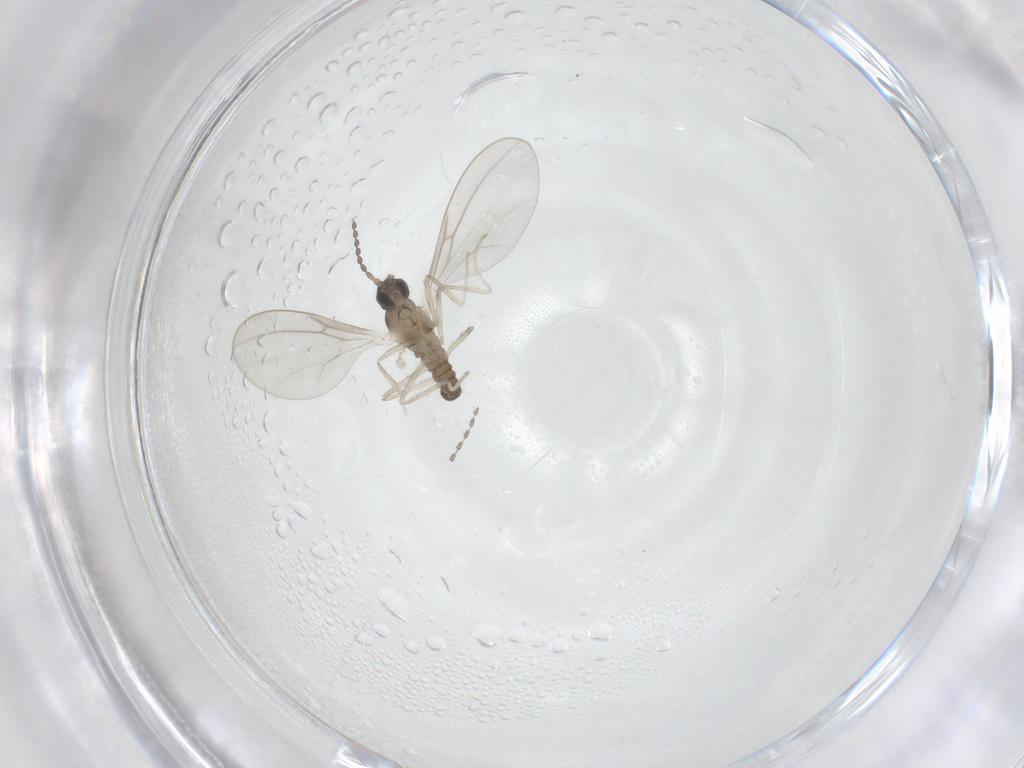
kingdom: Animalia
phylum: Arthropoda
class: Insecta
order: Diptera
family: Cecidomyiidae
